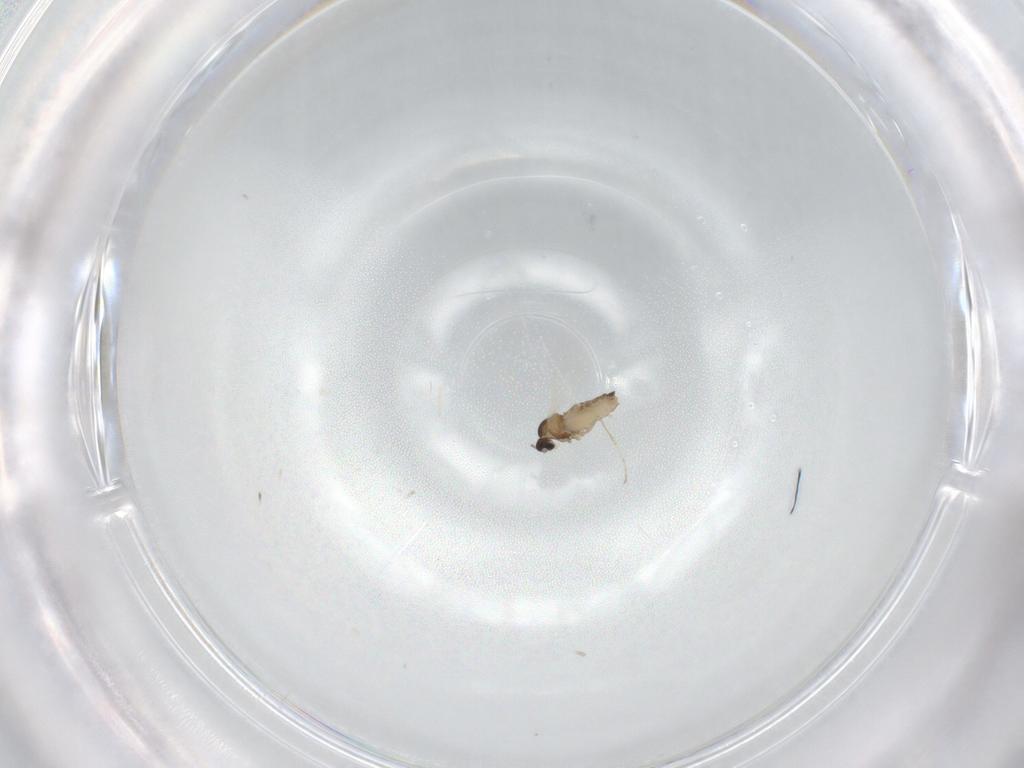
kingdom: Animalia
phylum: Arthropoda
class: Insecta
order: Diptera
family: Cecidomyiidae
